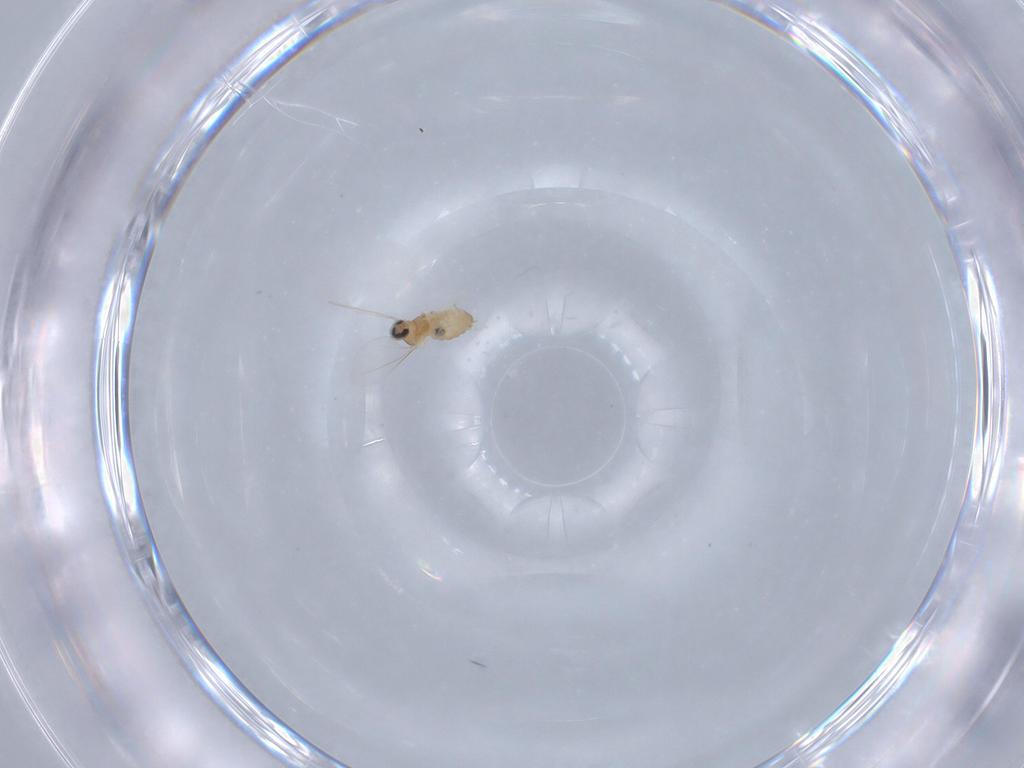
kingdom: Animalia
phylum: Arthropoda
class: Insecta
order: Diptera
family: Cecidomyiidae
